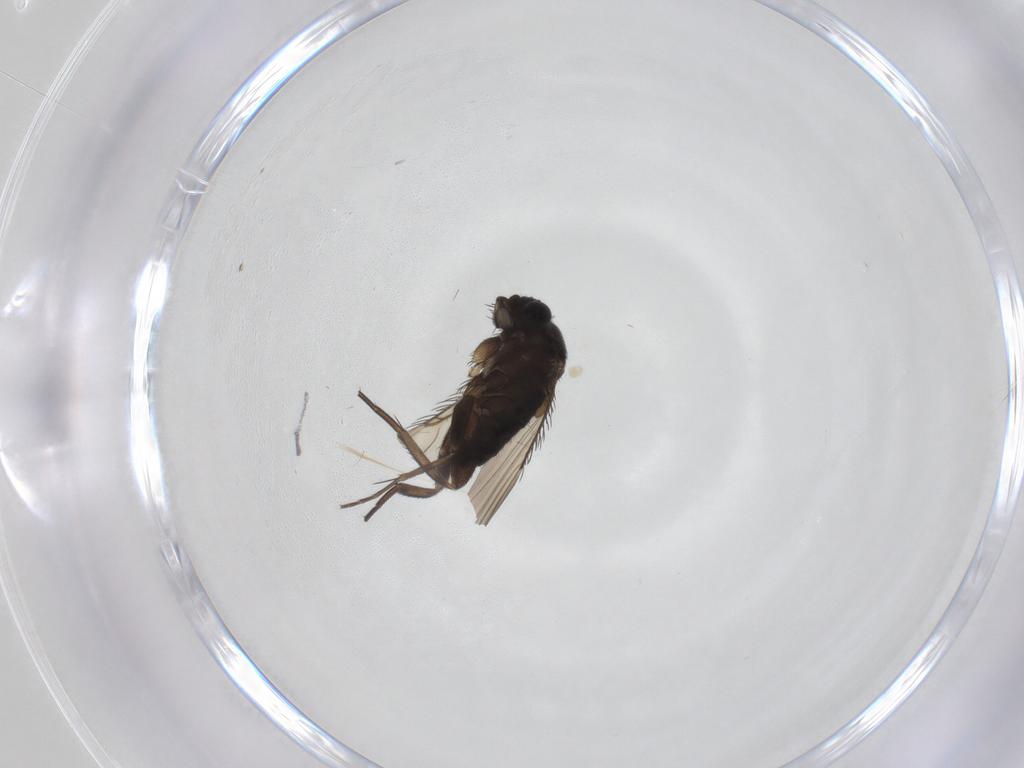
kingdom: Animalia
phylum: Arthropoda
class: Insecta
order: Diptera
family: Phoridae
